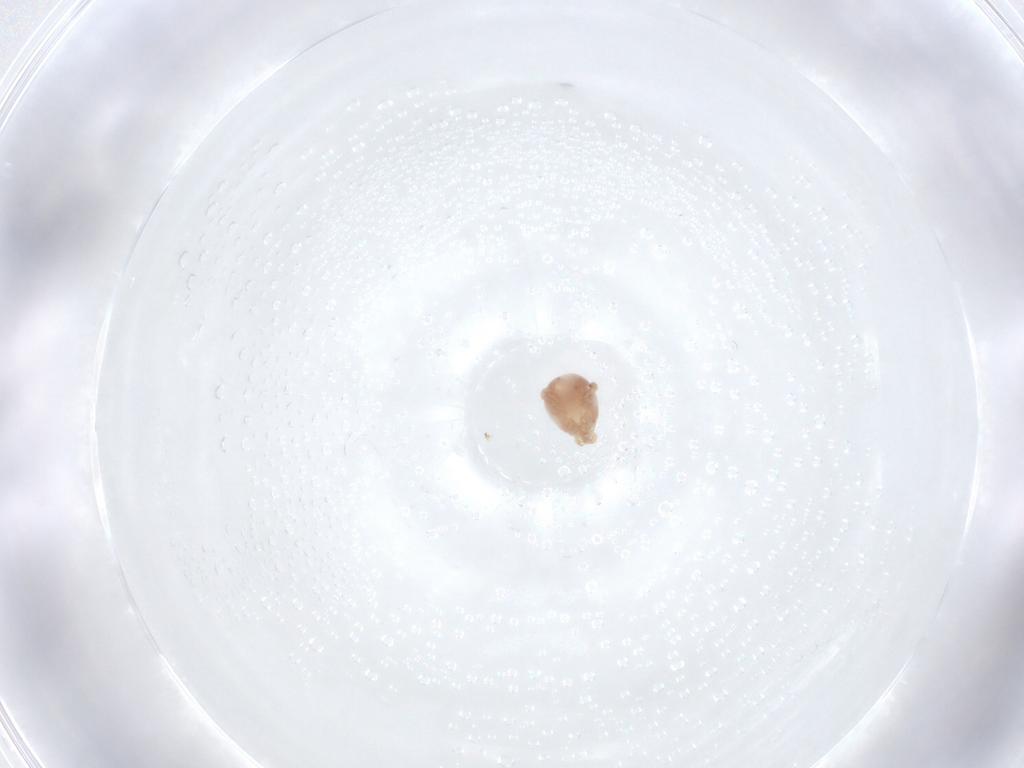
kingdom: Animalia
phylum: Arthropoda
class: Arachnida
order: Mesostigmata
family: Laelapidae
